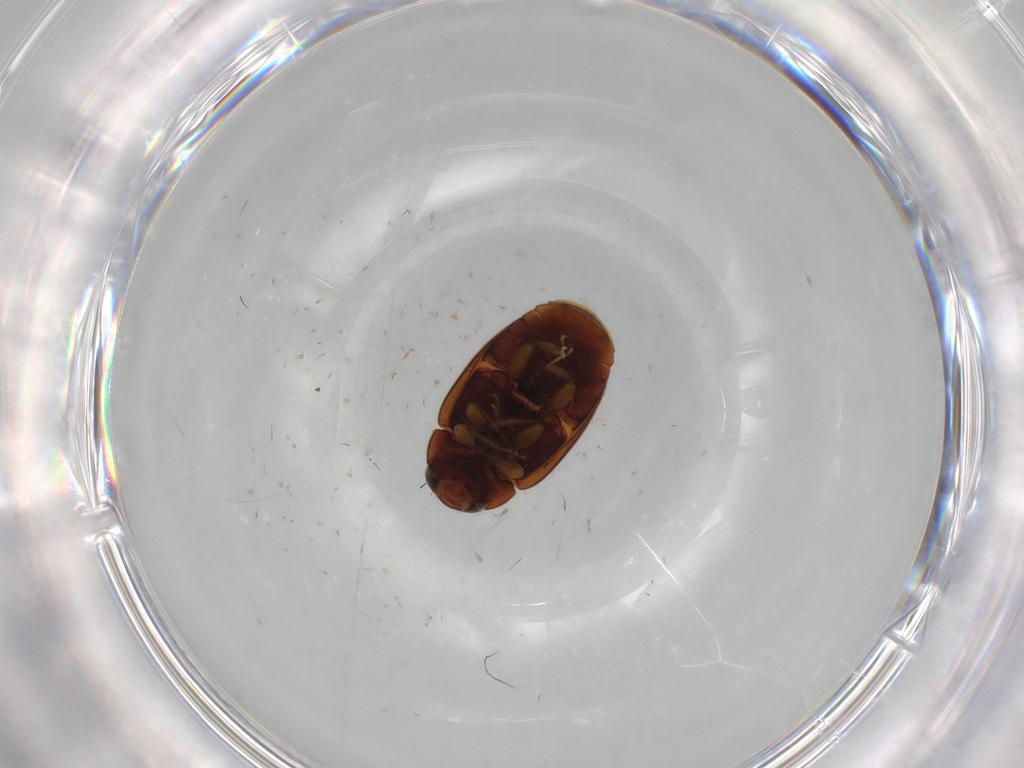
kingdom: Animalia
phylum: Arthropoda
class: Insecta
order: Coleoptera
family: Coccinellidae
